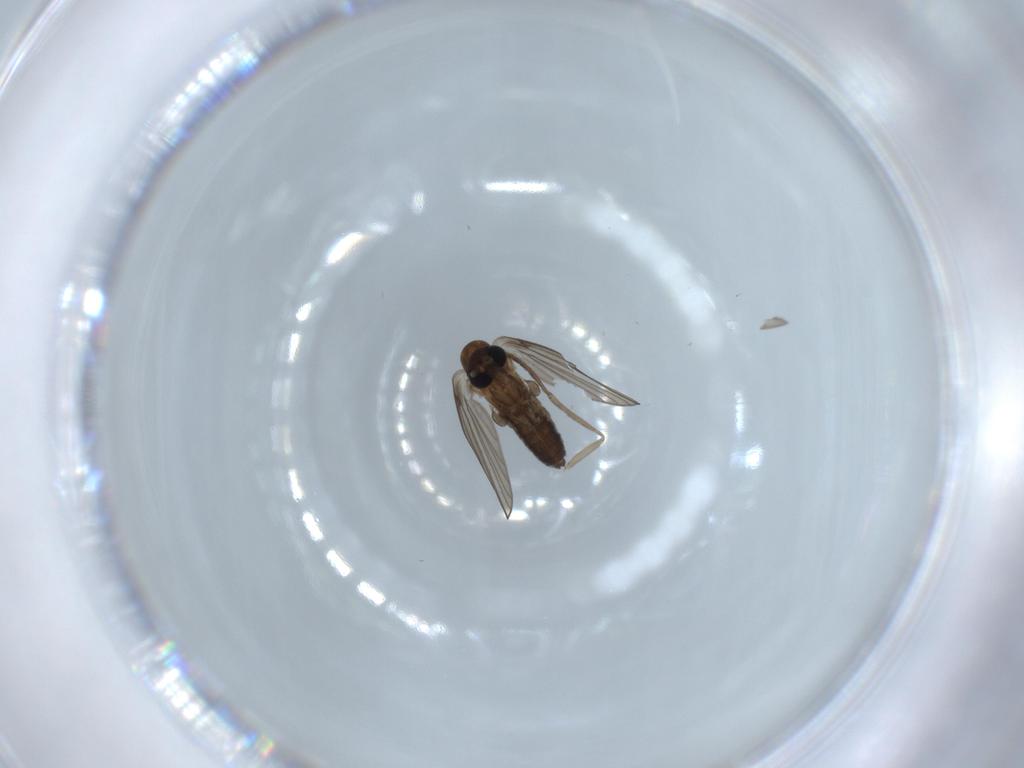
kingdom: Animalia
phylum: Arthropoda
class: Insecta
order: Diptera
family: Psychodidae
